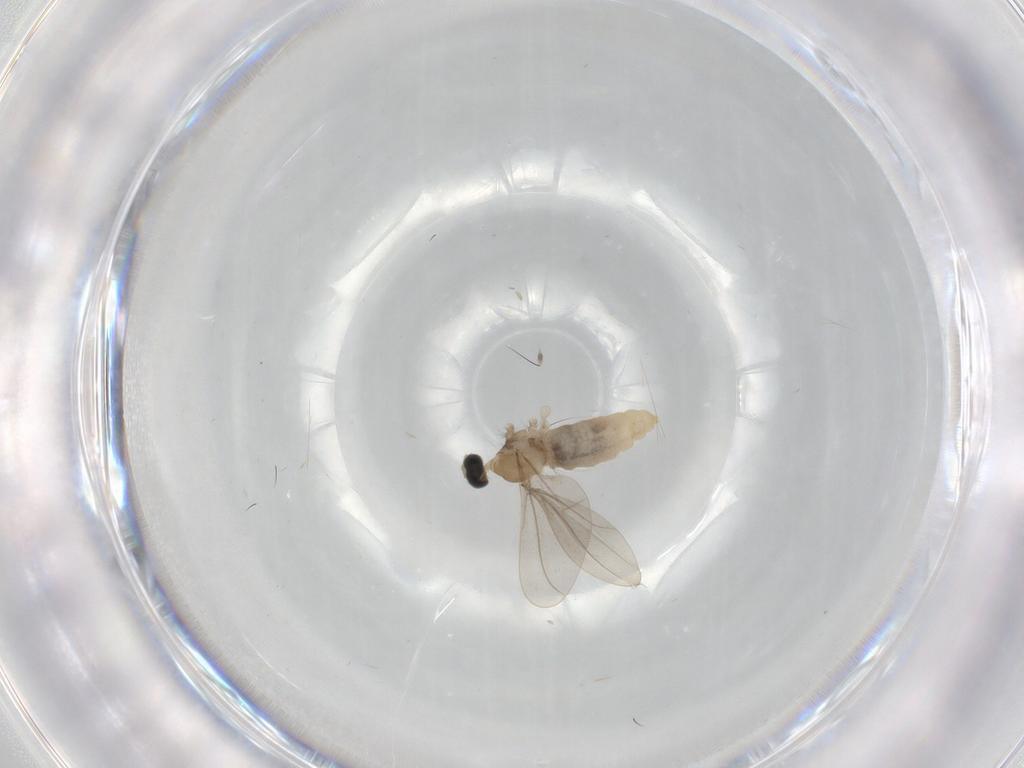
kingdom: Animalia
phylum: Arthropoda
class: Insecta
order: Diptera
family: Cecidomyiidae
